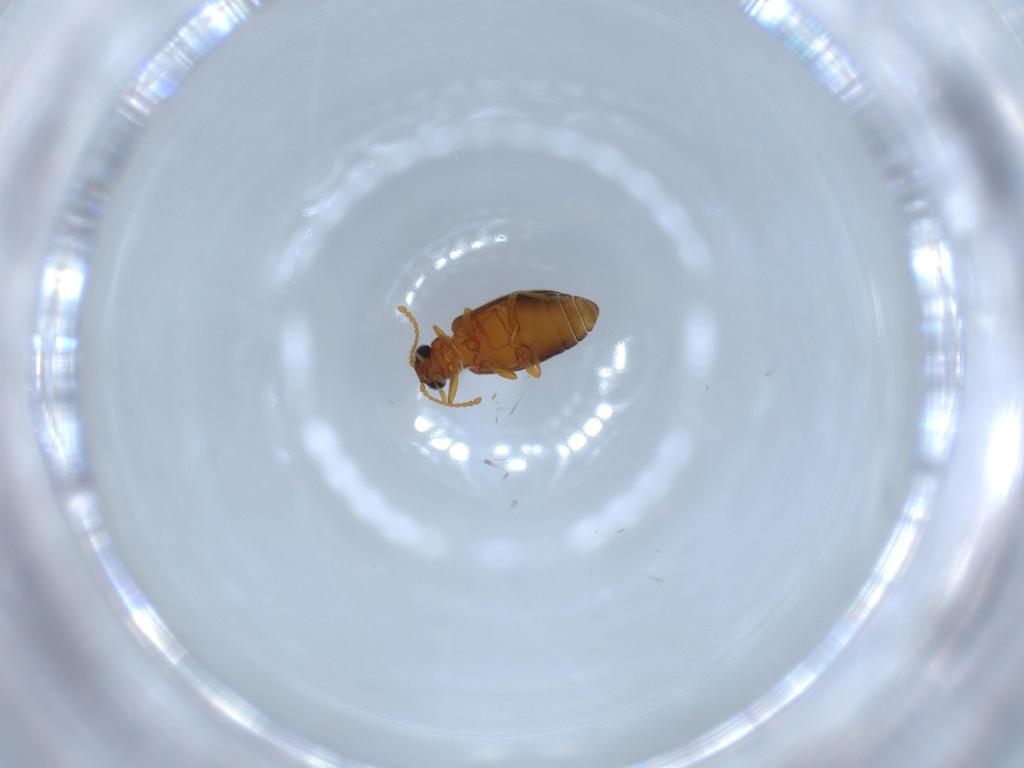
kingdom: Animalia
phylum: Arthropoda
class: Insecta
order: Coleoptera
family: Aderidae
